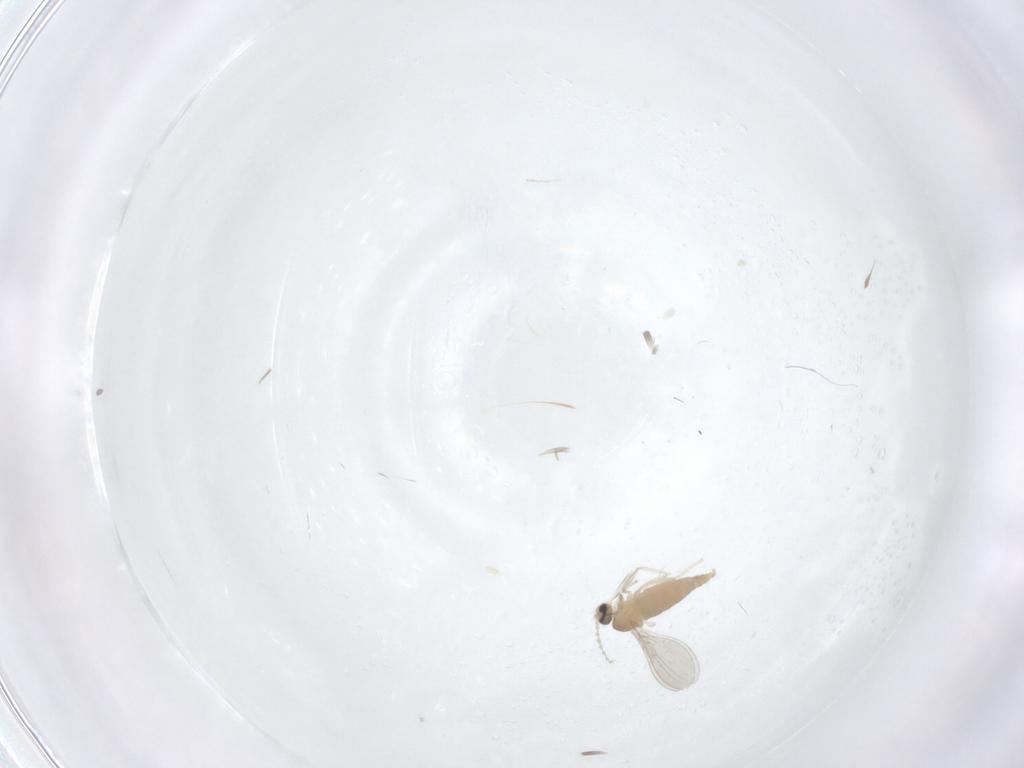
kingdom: Animalia
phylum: Arthropoda
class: Insecta
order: Diptera
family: Cecidomyiidae
